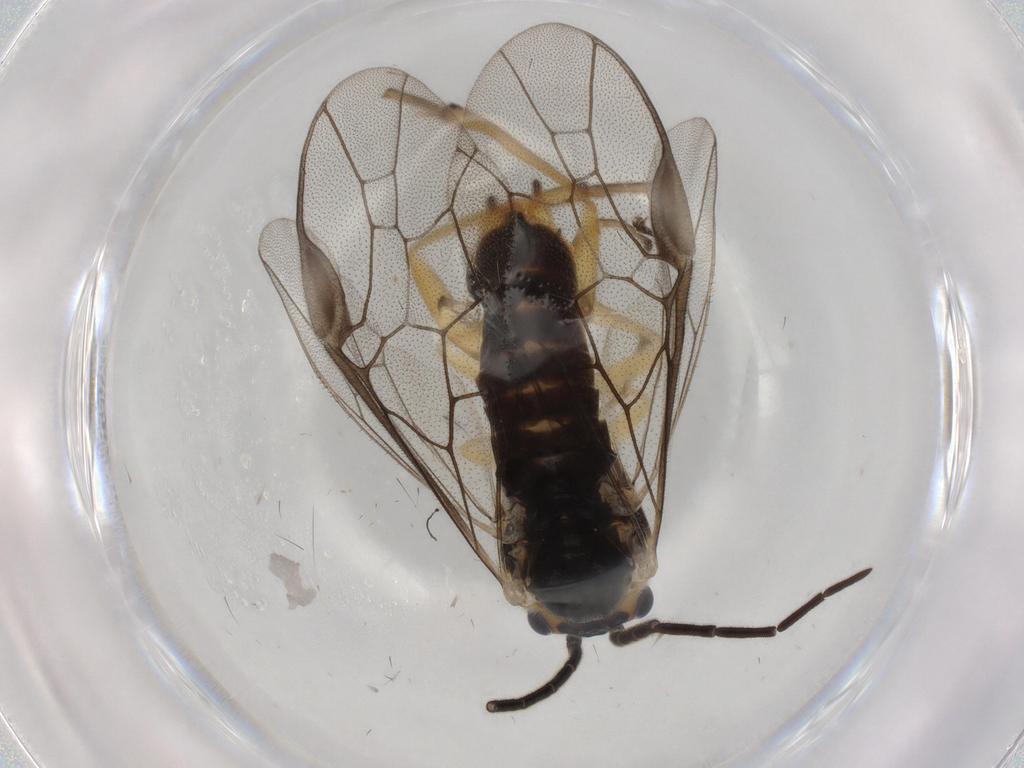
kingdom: Animalia
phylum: Arthropoda
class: Insecta
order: Hymenoptera
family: Tenthredinidae
